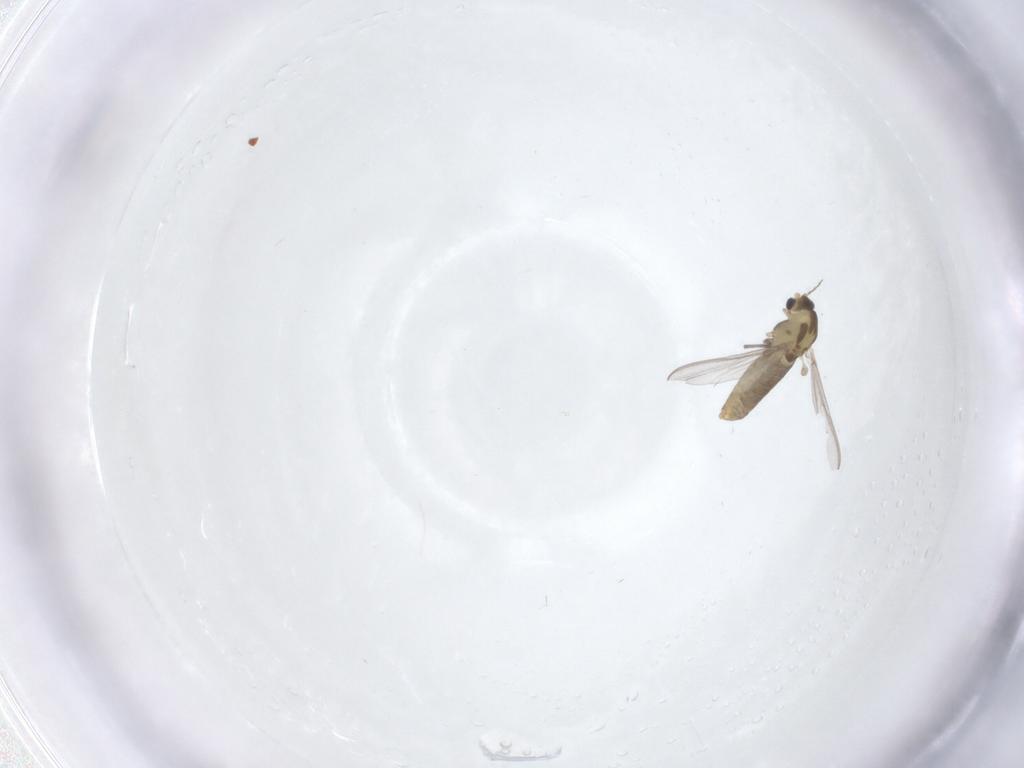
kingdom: Animalia
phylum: Arthropoda
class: Insecta
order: Diptera
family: Chironomidae
